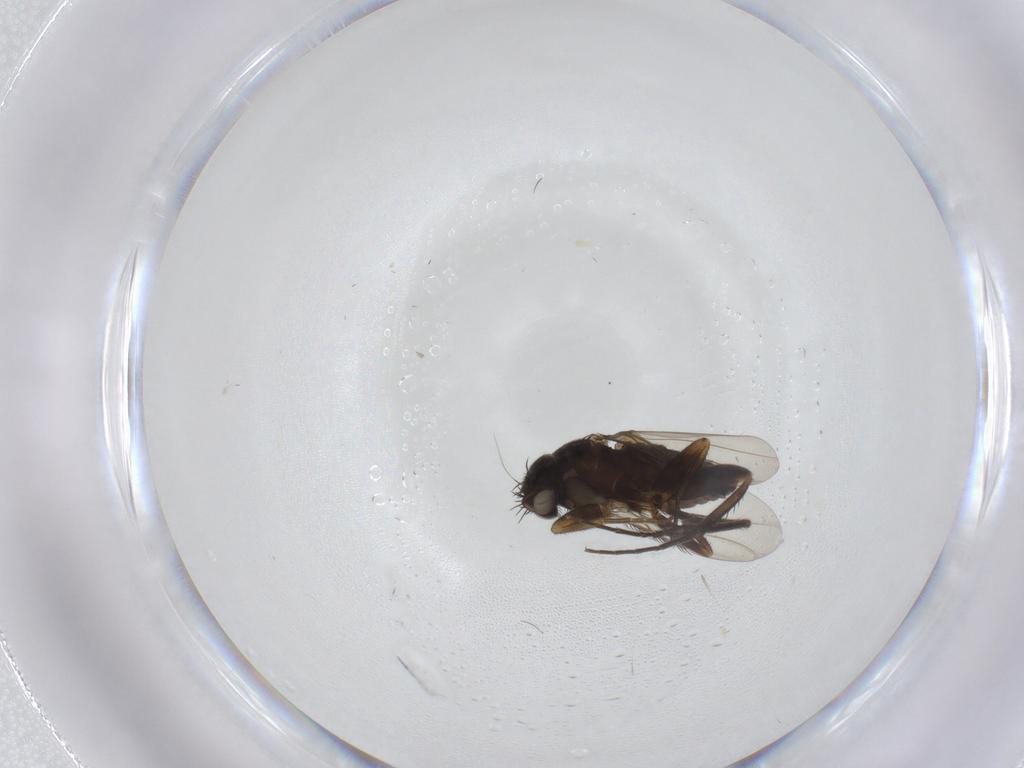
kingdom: Animalia
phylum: Arthropoda
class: Insecta
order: Diptera
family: Phoridae
